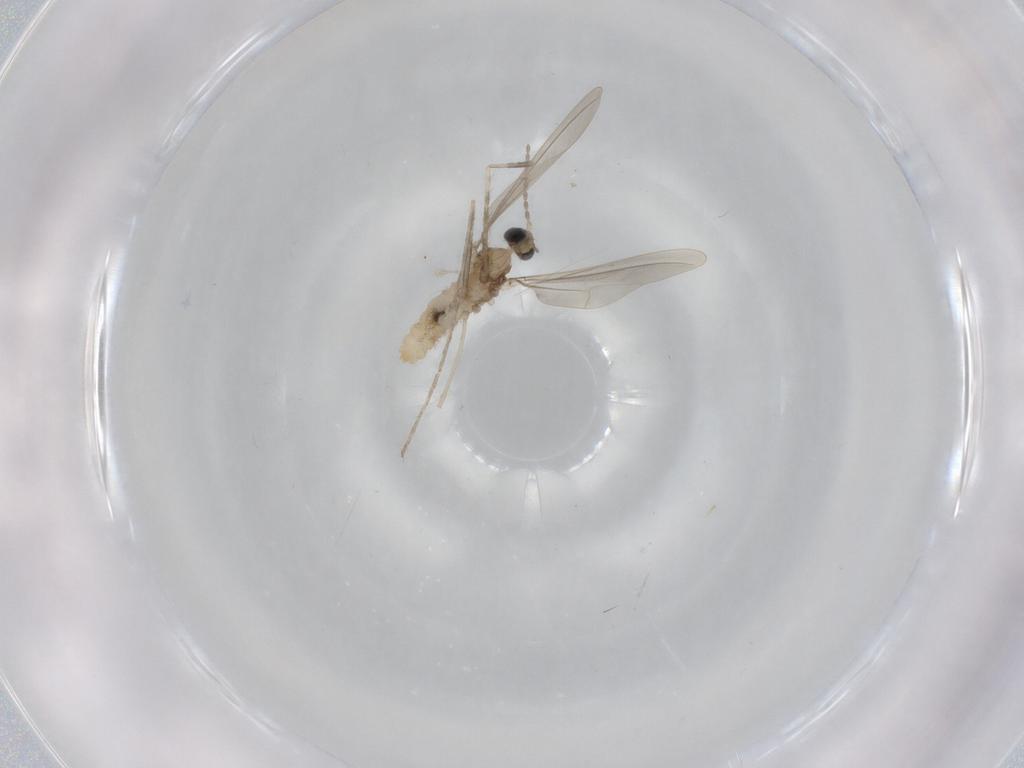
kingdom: Animalia
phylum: Arthropoda
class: Insecta
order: Diptera
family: Cecidomyiidae
